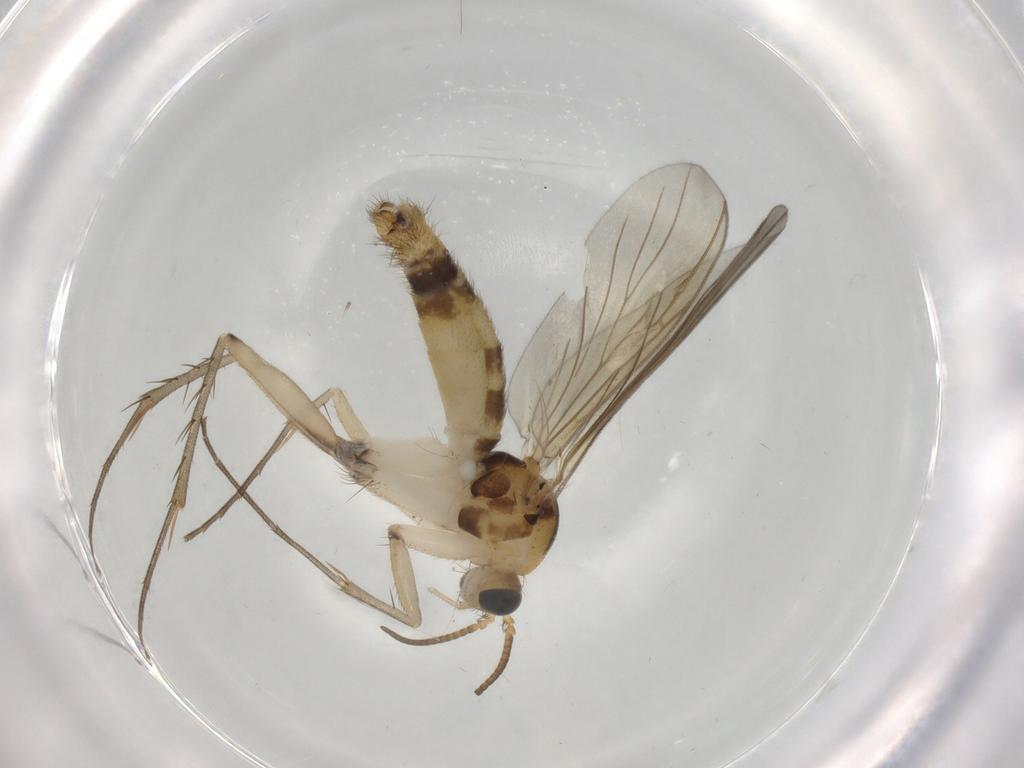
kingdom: Animalia
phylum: Arthropoda
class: Insecta
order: Diptera
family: Cecidomyiidae
